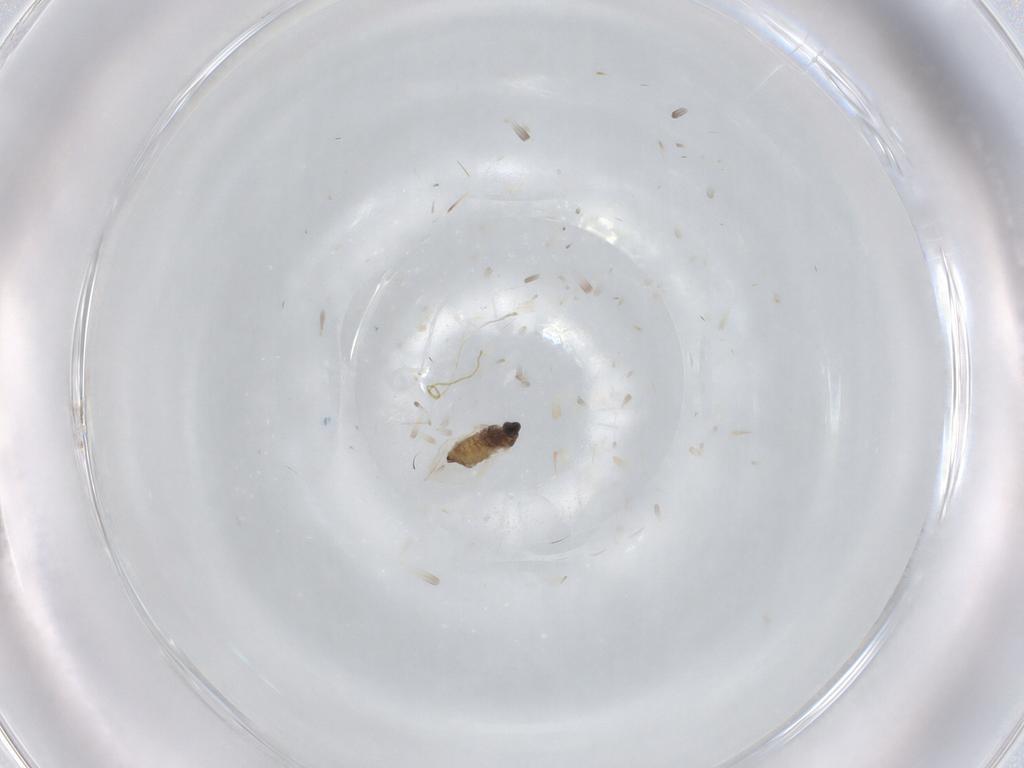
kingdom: Animalia
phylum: Arthropoda
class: Insecta
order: Diptera
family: Cecidomyiidae
